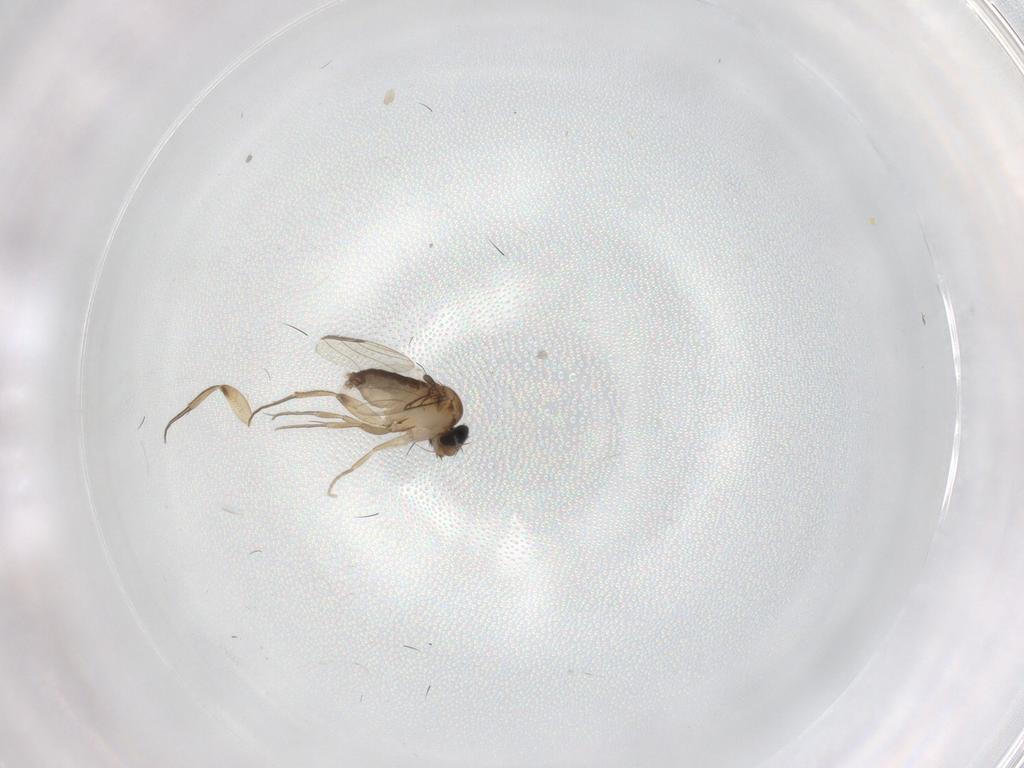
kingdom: Animalia
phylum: Arthropoda
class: Insecta
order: Diptera
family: Phoridae
